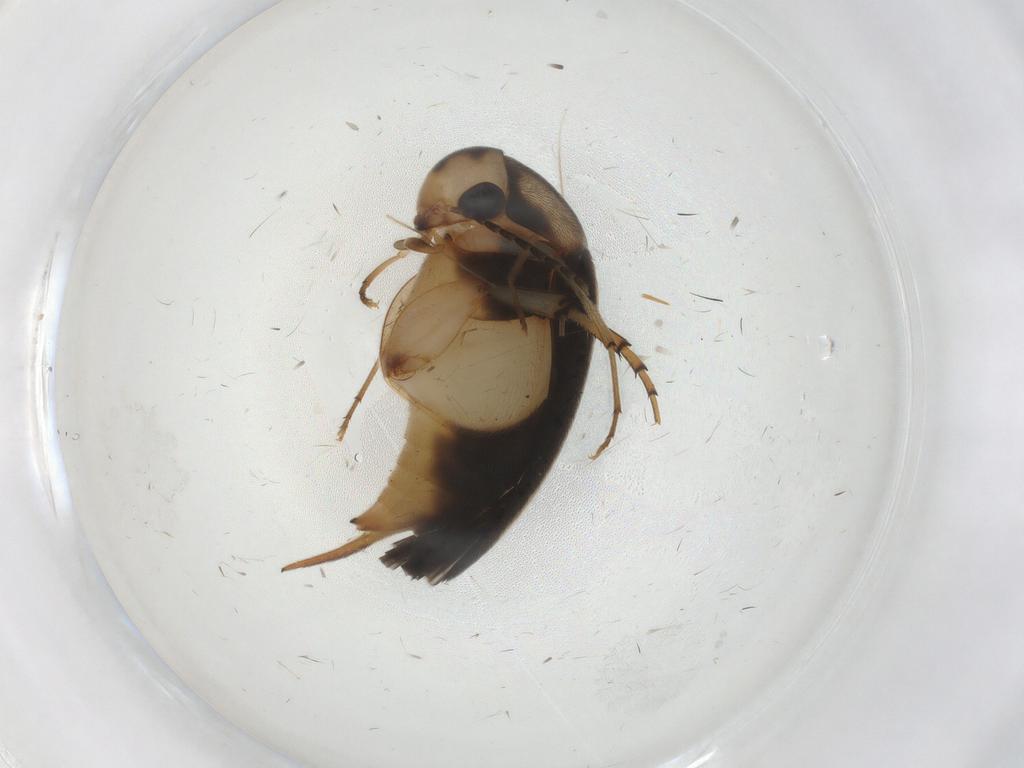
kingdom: Animalia
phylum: Arthropoda
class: Insecta
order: Coleoptera
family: Mordellidae
